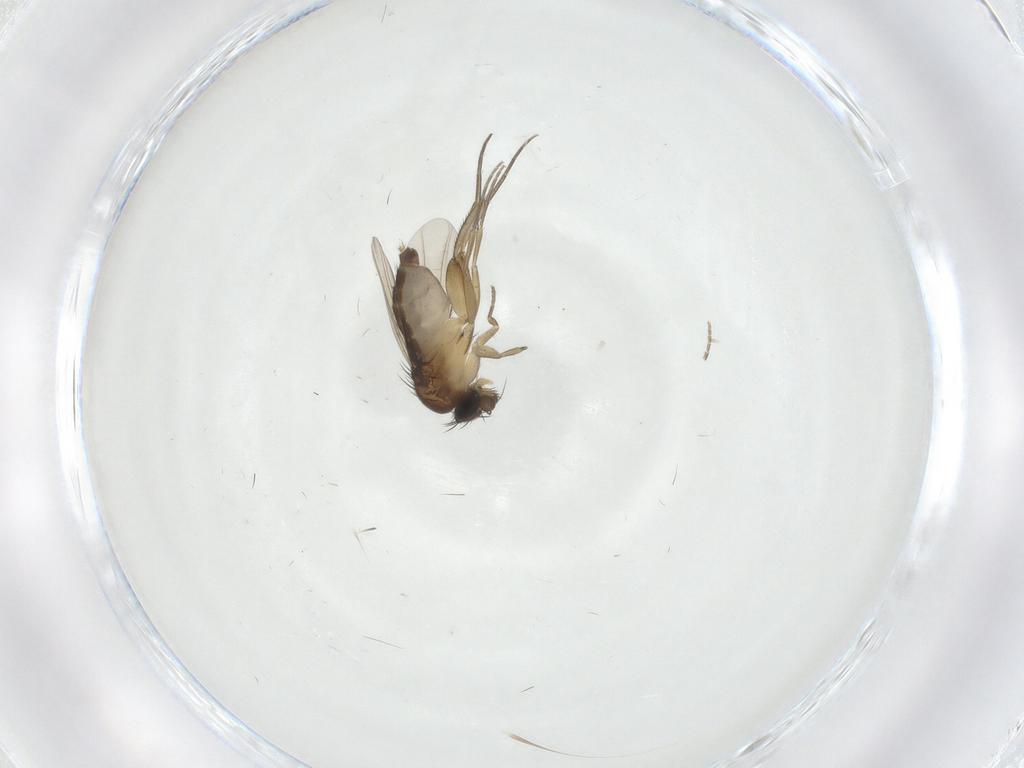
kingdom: Animalia
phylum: Arthropoda
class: Insecta
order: Diptera
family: Phoridae
